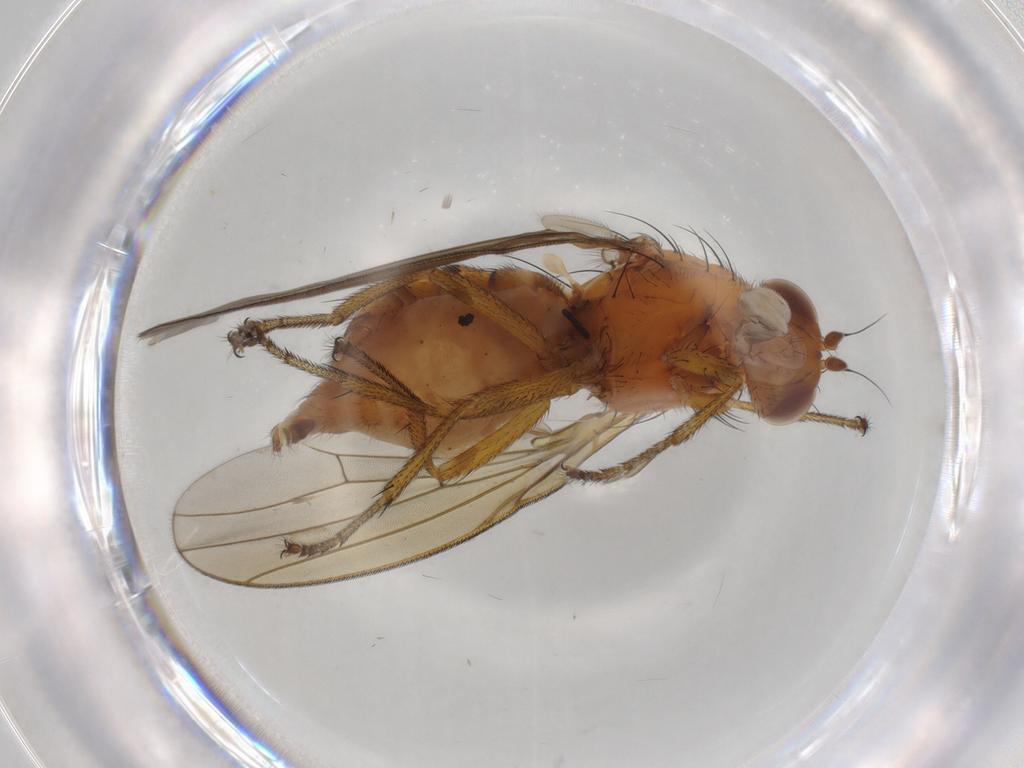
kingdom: Animalia
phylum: Arthropoda
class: Insecta
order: Diptera
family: Lauxaniidae
